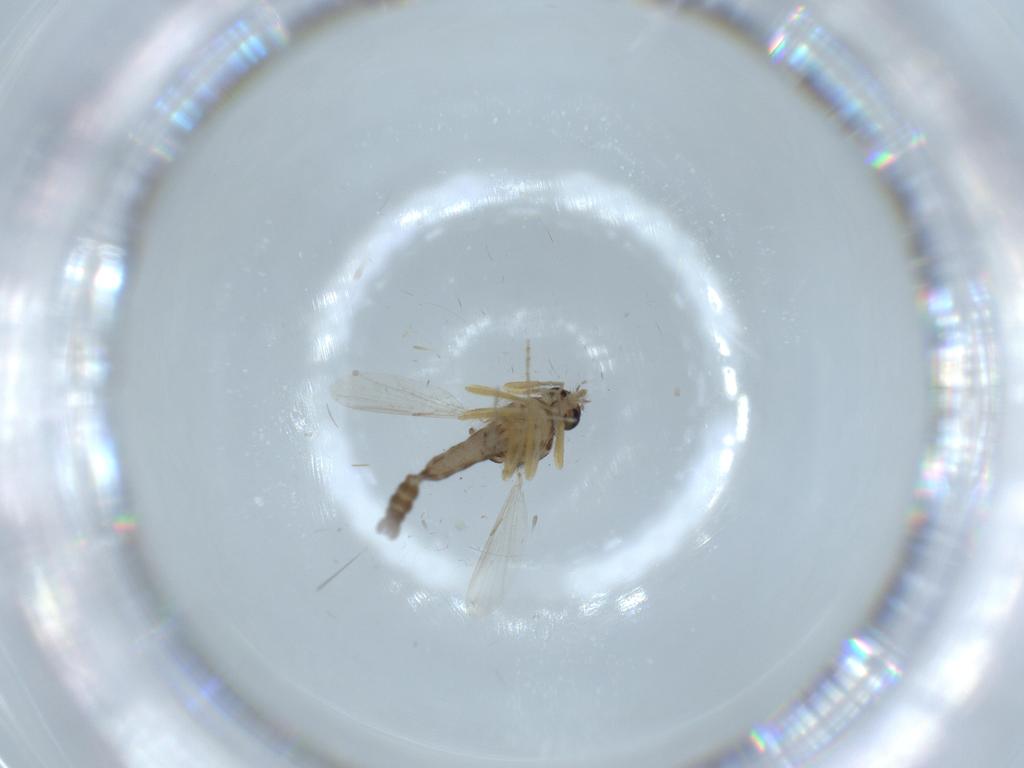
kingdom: Animalia
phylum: Arthropoda
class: Insecta
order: Diptera
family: Ceratopogonidae
